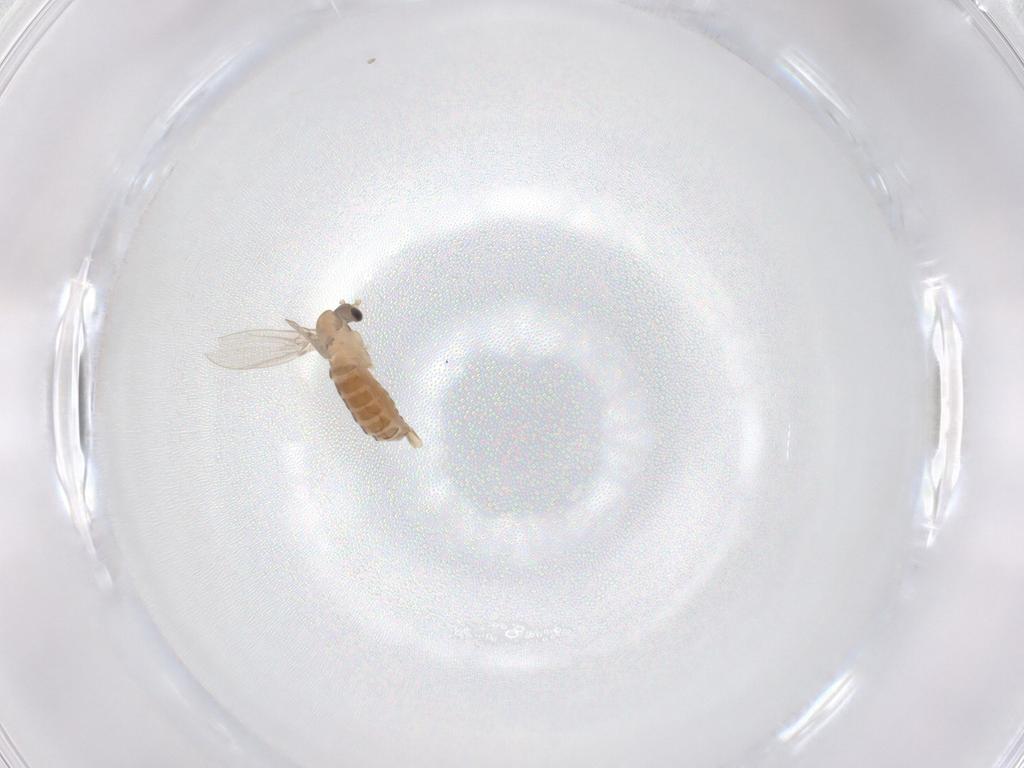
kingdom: Animalia
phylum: Arthropoda
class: Insecta
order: Diptera
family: Psychodidae
